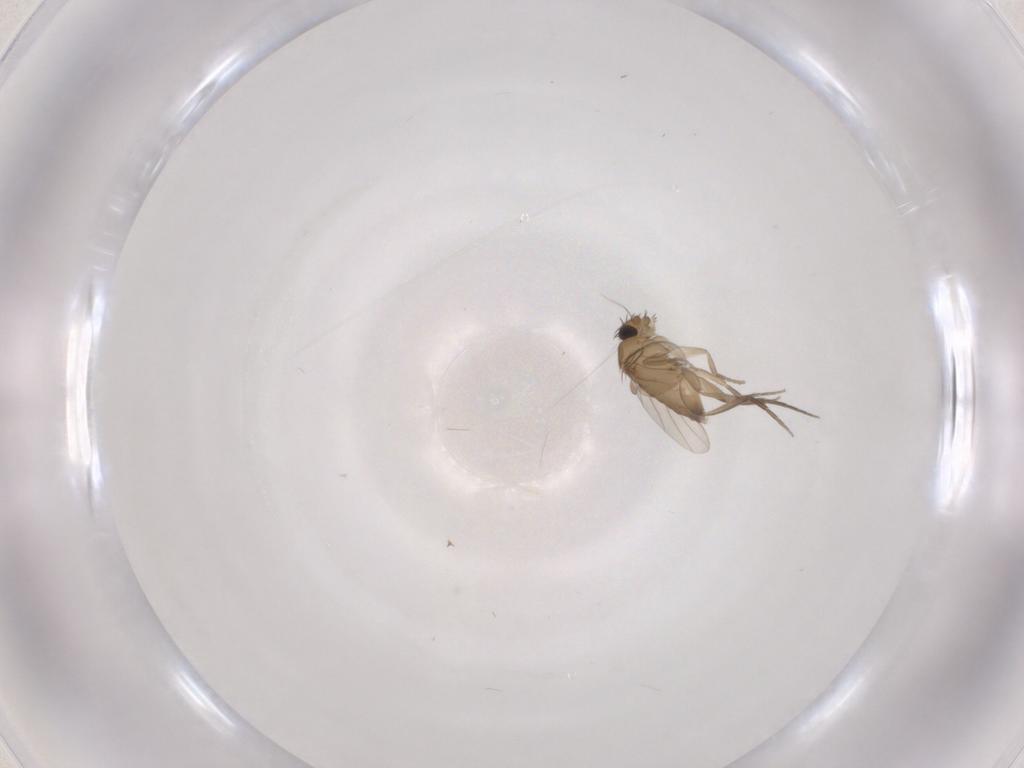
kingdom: Animalia
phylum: Arthropoda
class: Insecta
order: Diptera
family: Phoridae
